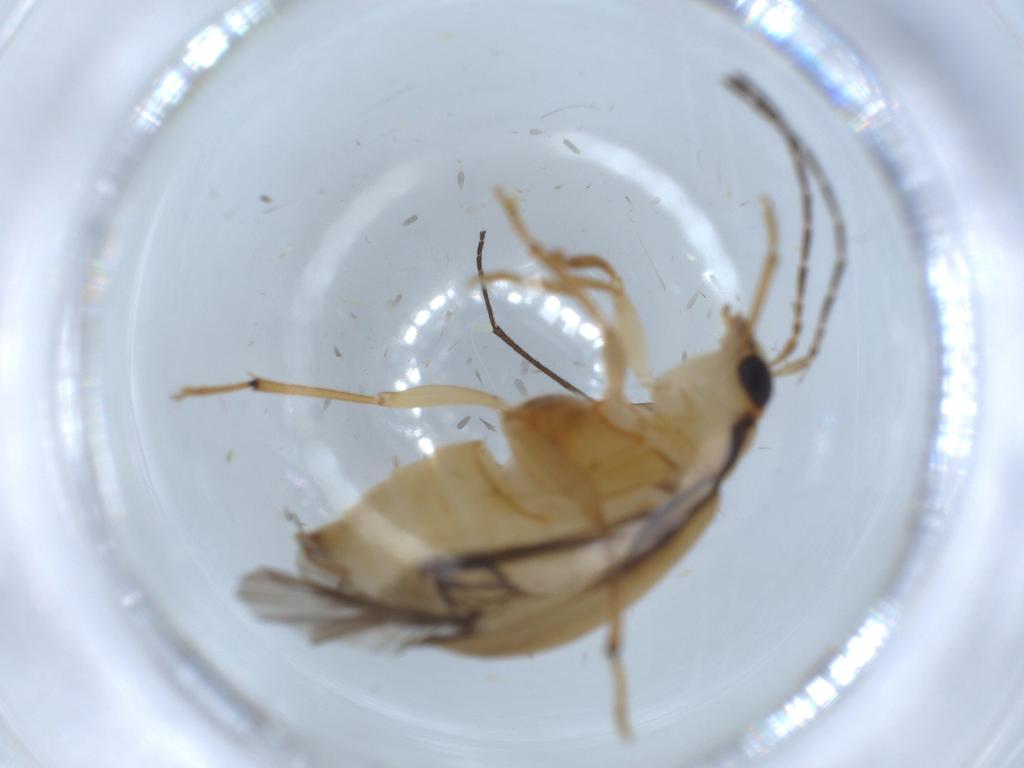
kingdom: Animalia
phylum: Arthropoda
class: Insecta
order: Coleoptera
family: Chrysomelidae
